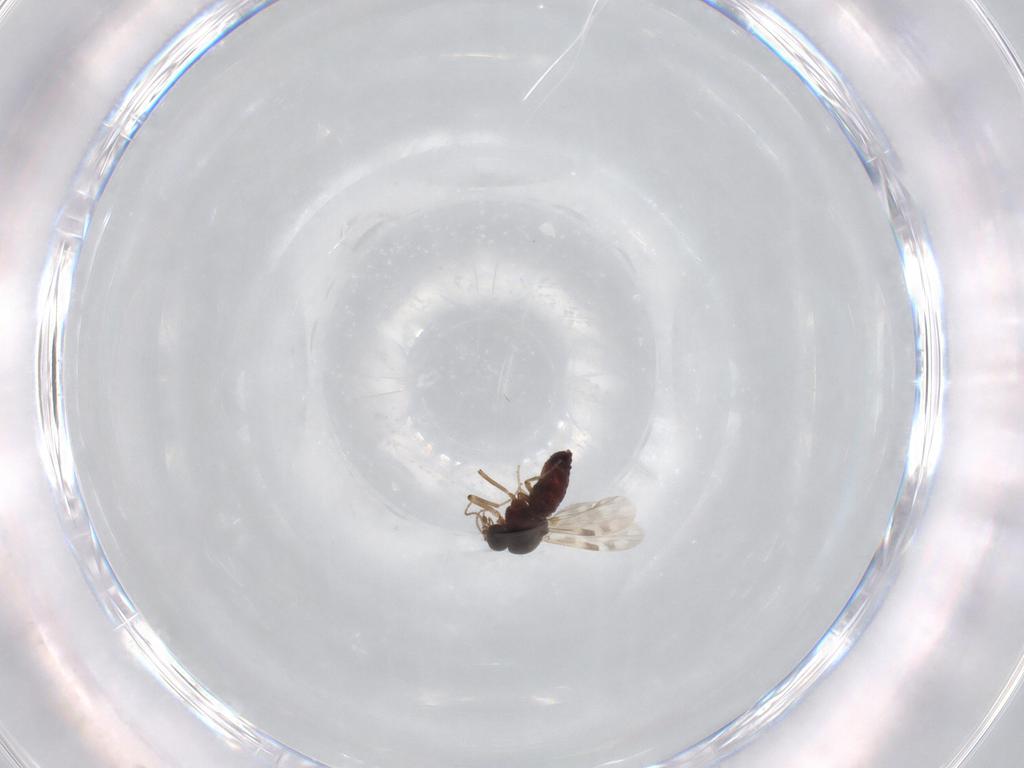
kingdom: Animalia
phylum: Arthropoda
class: Insecta
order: Diptera
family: Ceratopogonidae
